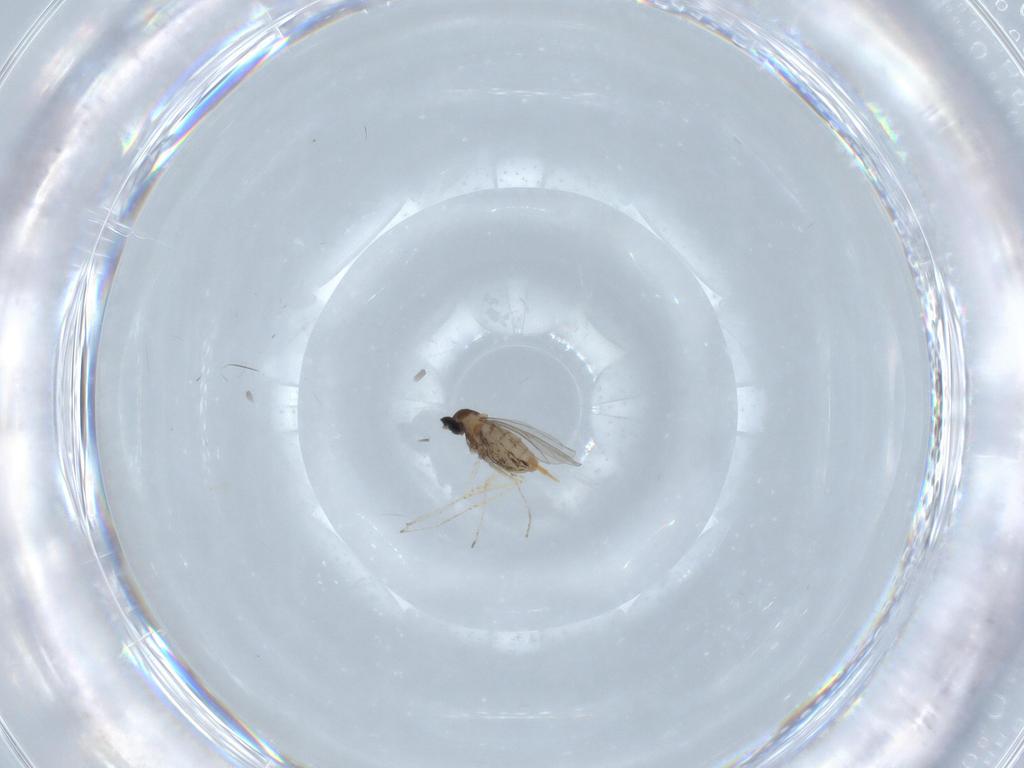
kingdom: Animalia
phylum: Arthropoda
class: Insecta
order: Diptera
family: Cecidomyiidae
